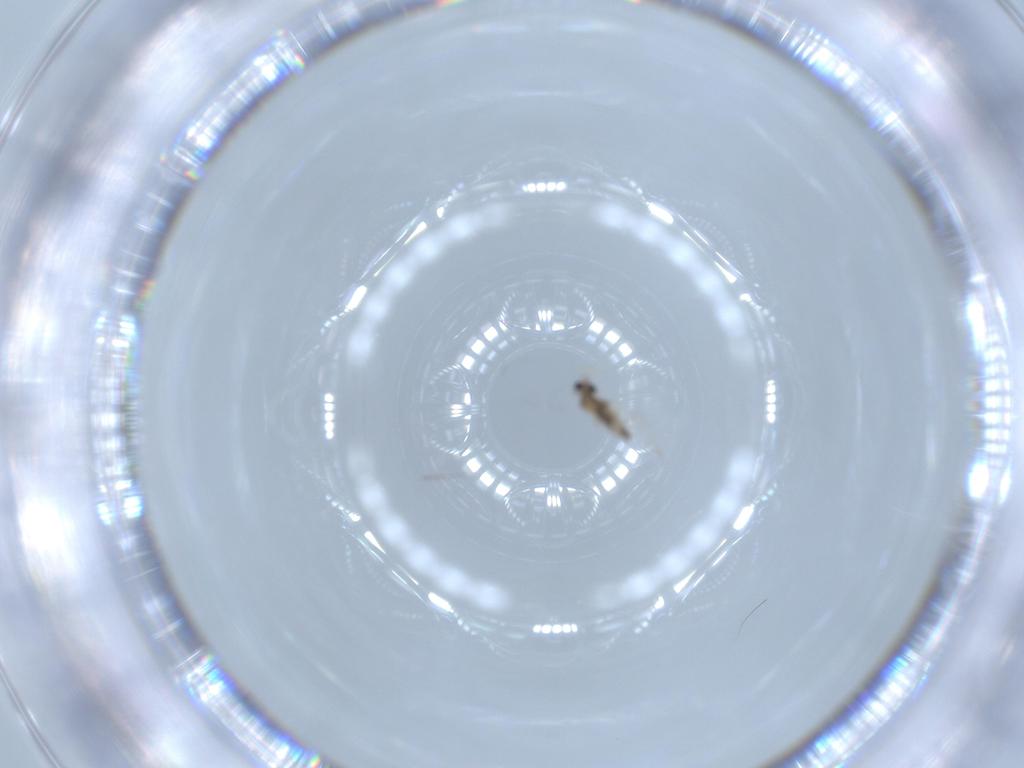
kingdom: Animalia
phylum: Arthropoda
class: Insecta
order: Diptera
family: Cecidomyiidae
